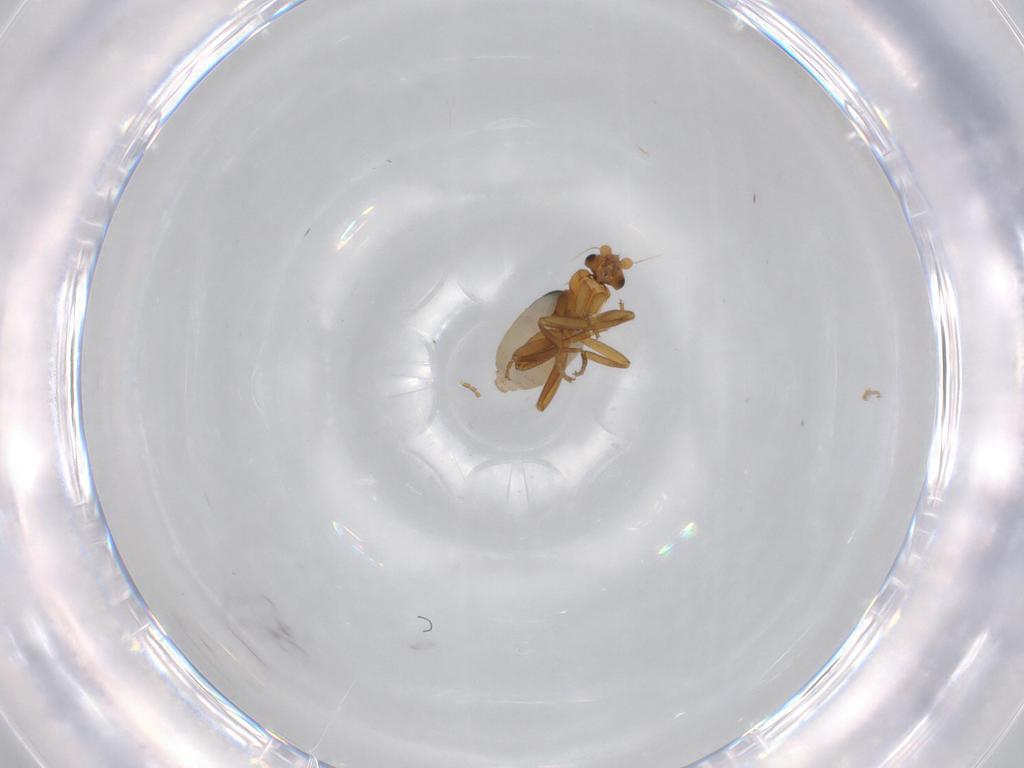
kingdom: Animalia
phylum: Arthropoda
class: Insecta
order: Diptera
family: Phoridae
